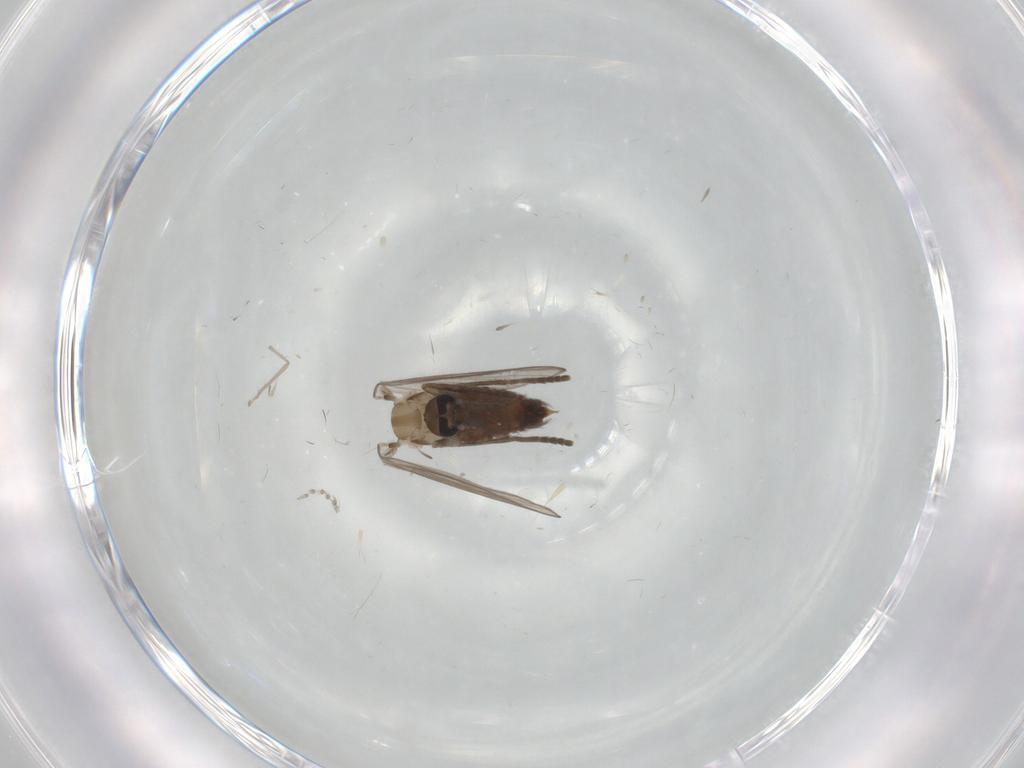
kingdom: Animalia
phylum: Arthropoda
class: Insecta
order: Diptera
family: Psychodidae
